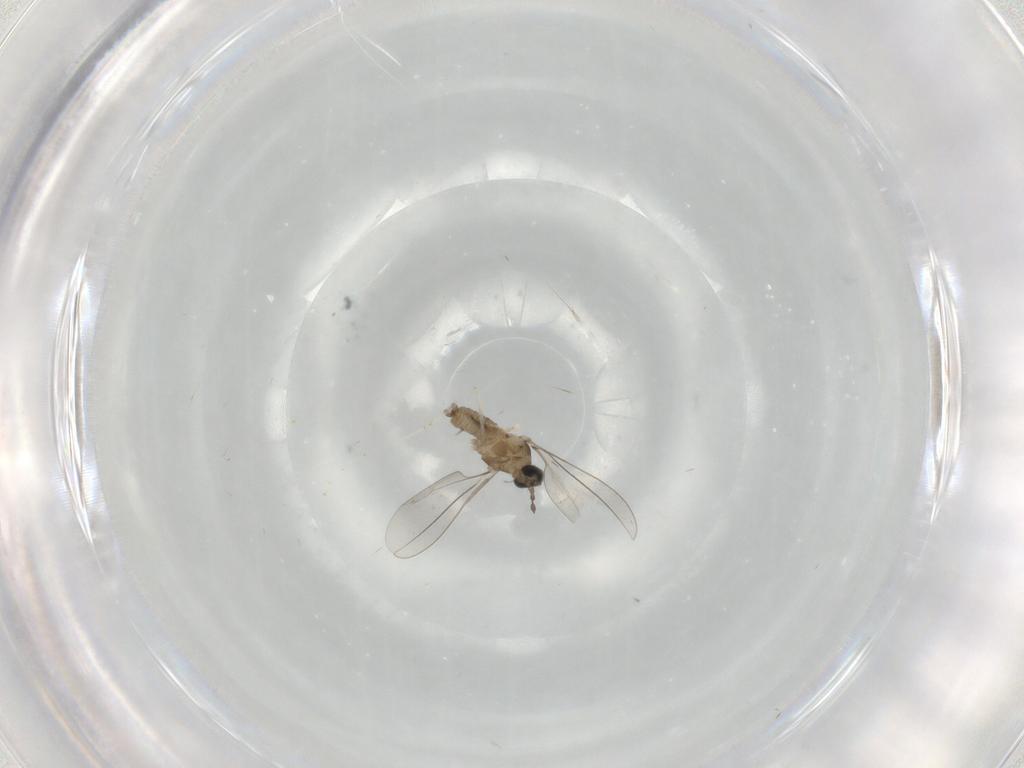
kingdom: Animalia
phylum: Arthropoda
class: Insecta
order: Diptera
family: Cecidomyiidae
